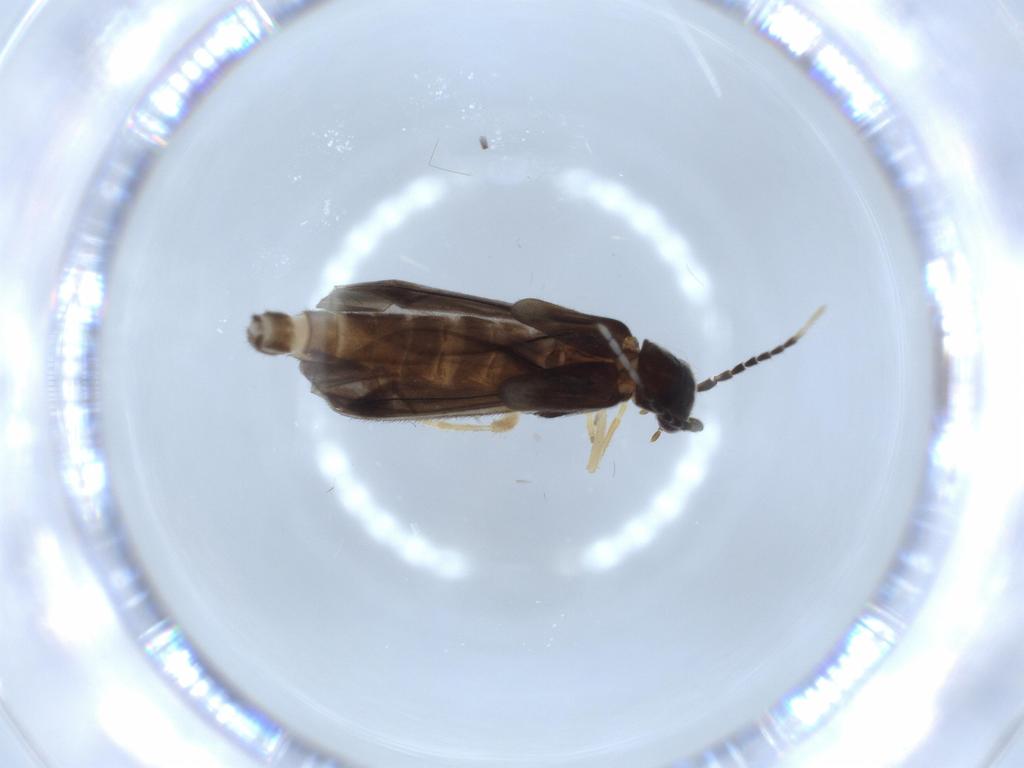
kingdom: Animalia
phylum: Arthropoda
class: Insecta
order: Coleoptera
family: Cantharidae
